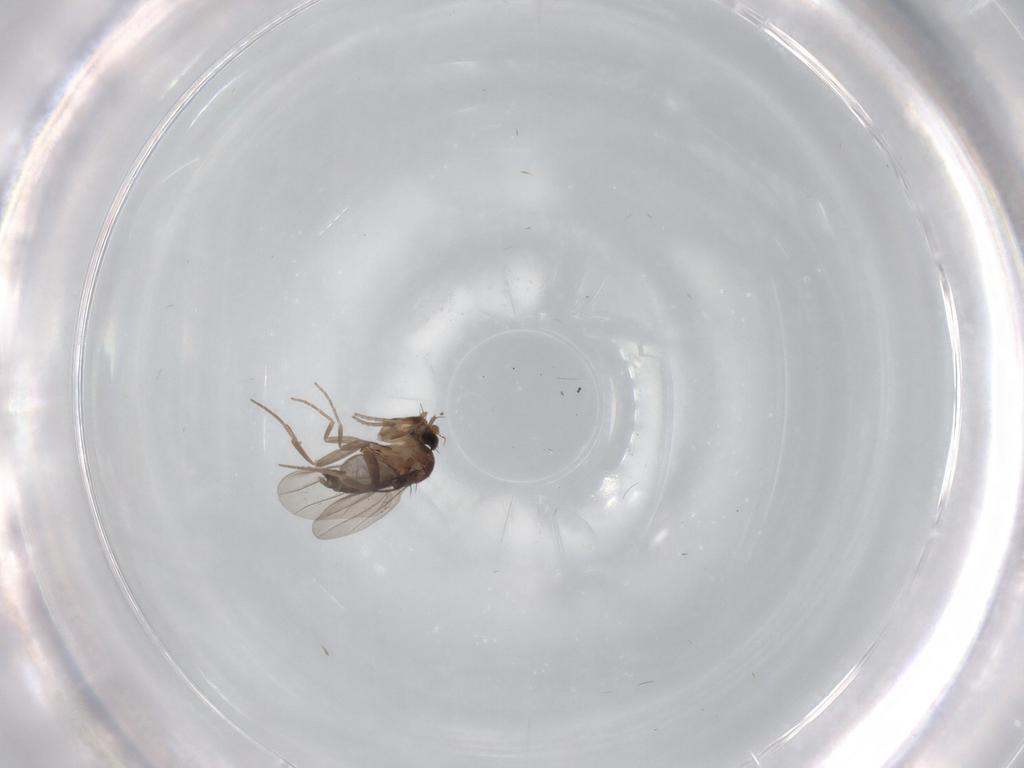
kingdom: Animalia
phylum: Arthropoda
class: Insecta
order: Diptera
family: Phoridae
